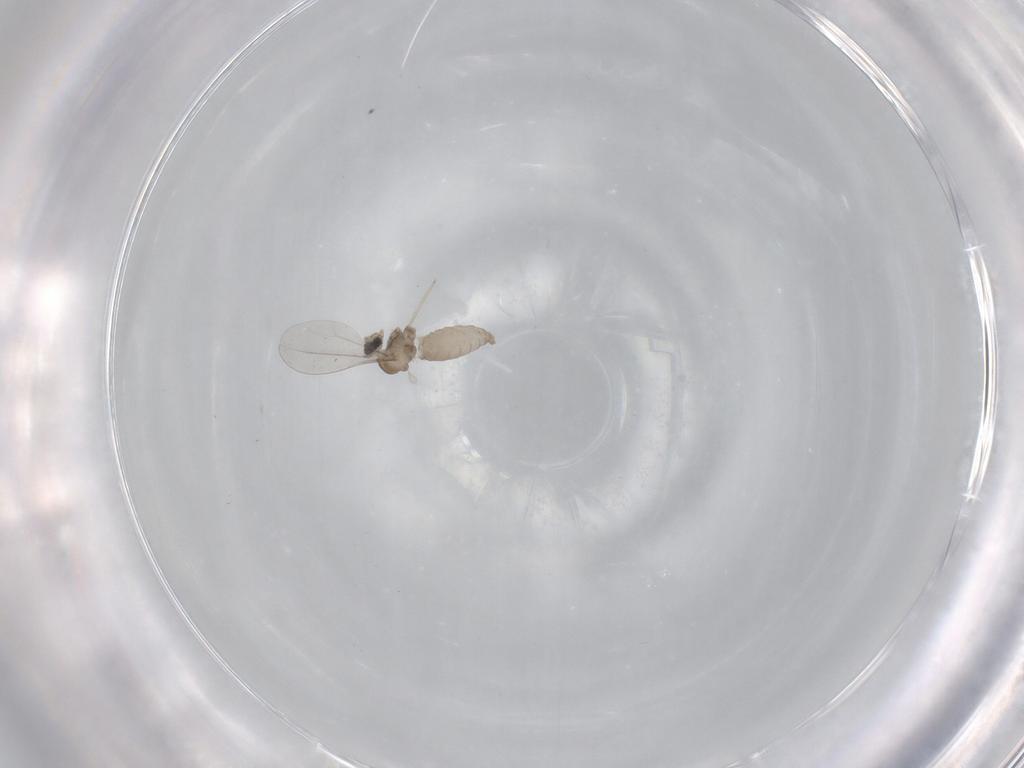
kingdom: Animalia
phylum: Arthropoda
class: Insecta
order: Diptera
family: Cecidomyiidae
